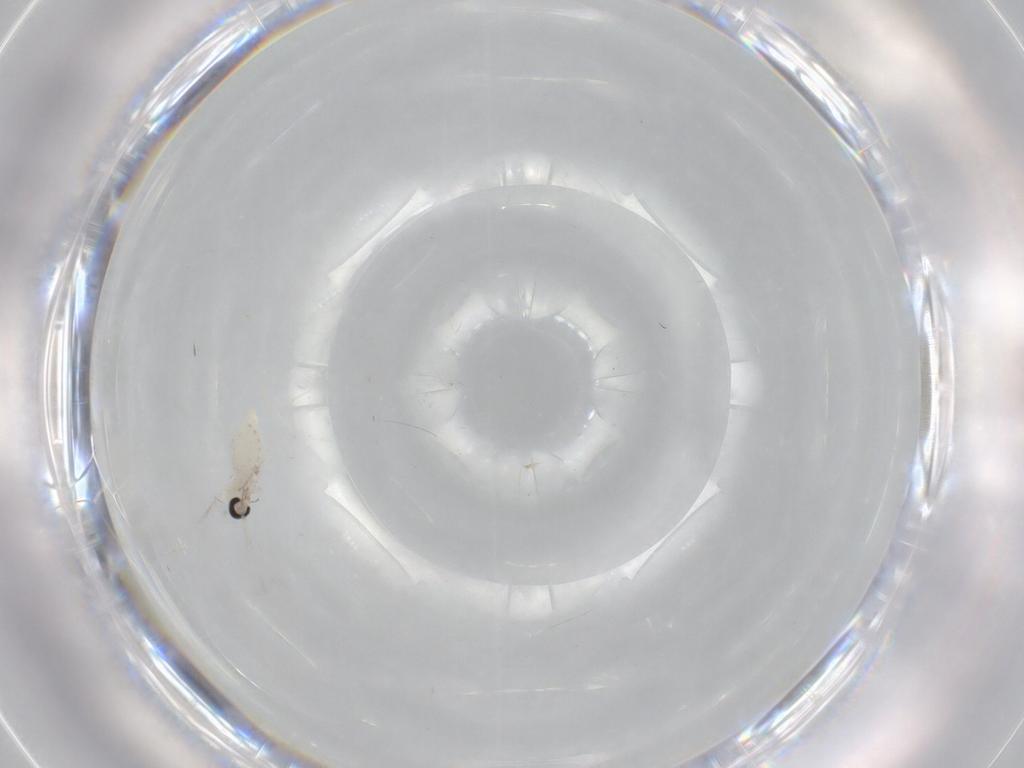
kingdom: Animalia
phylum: Arthropoda
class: Insecta
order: Diptera
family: Cecidomyiidae
